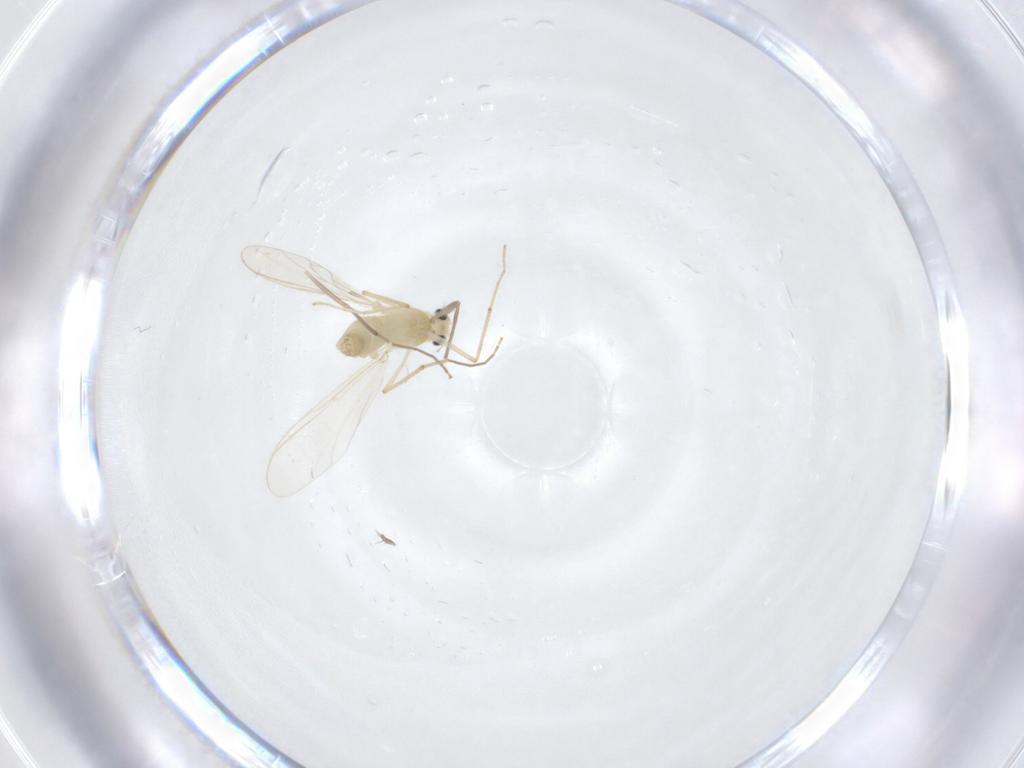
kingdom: Animalia
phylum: Arthropoda
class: Insecta
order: Diptera
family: Chironomidae
